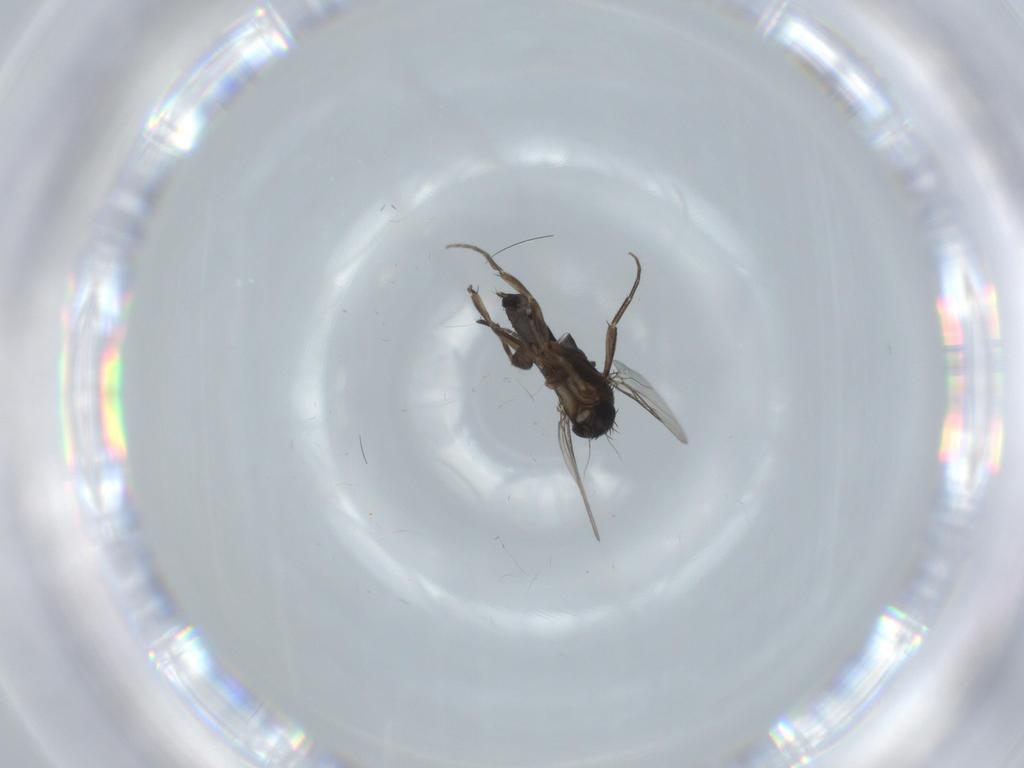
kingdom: Animalia
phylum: Arthropoda
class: Insecta
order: Diptera
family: Phoridae
